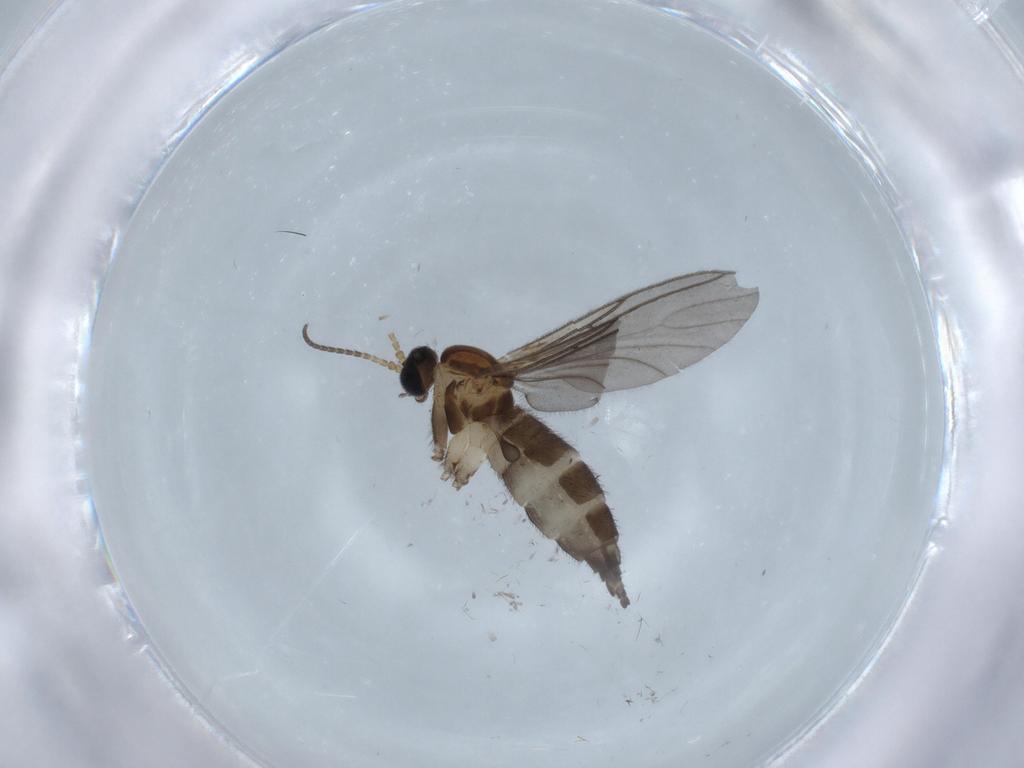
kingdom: Animalia
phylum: Arthropoda
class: Insecta
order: Diptera
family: Sciaridae
